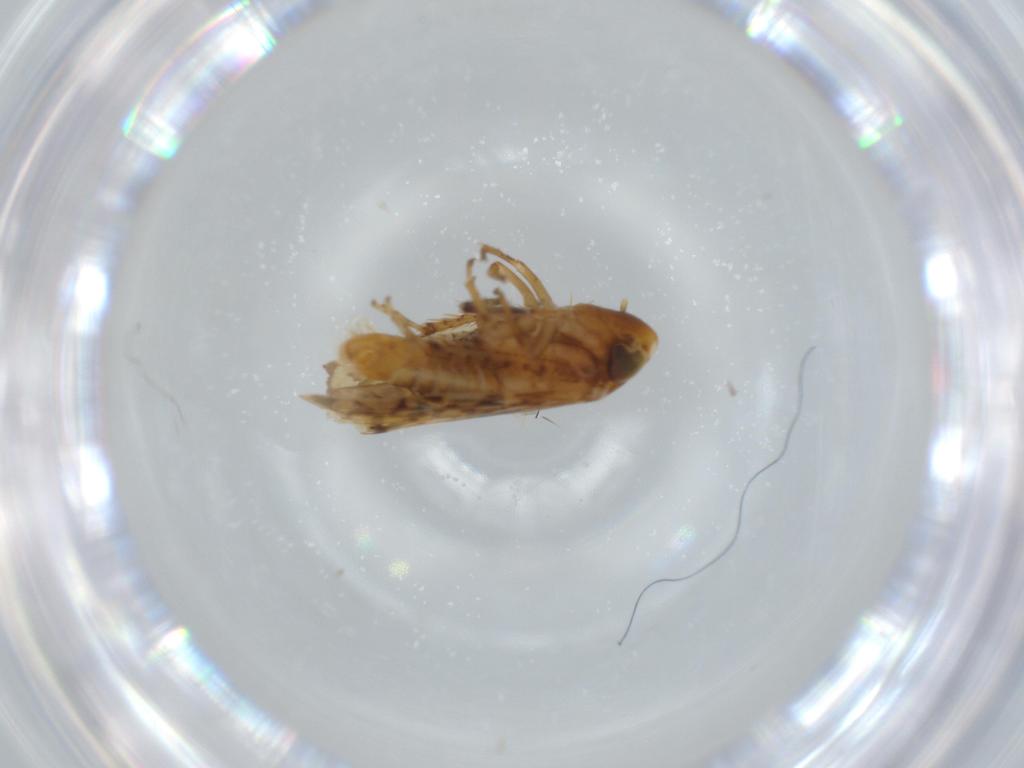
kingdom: Animalia
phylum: Arthropoda
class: Insecta
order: Hemiptera
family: Cicadellidae
